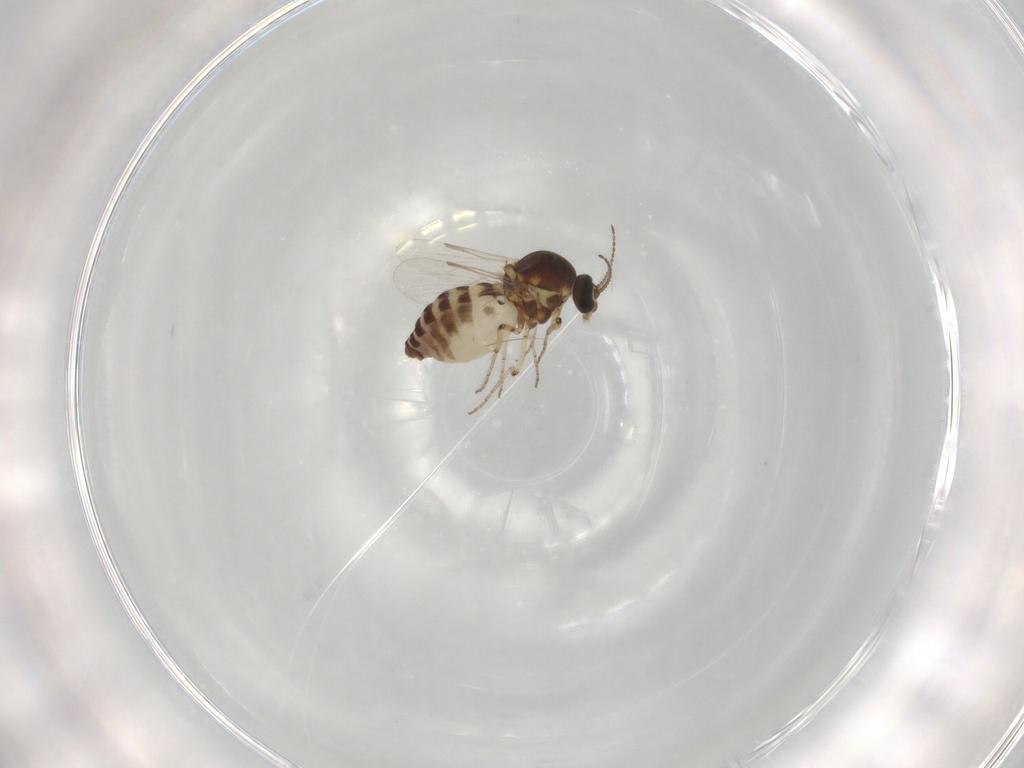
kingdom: Animalia
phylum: Arthropoda
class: Insecta
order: Diptera
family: Ceratopogonidae
